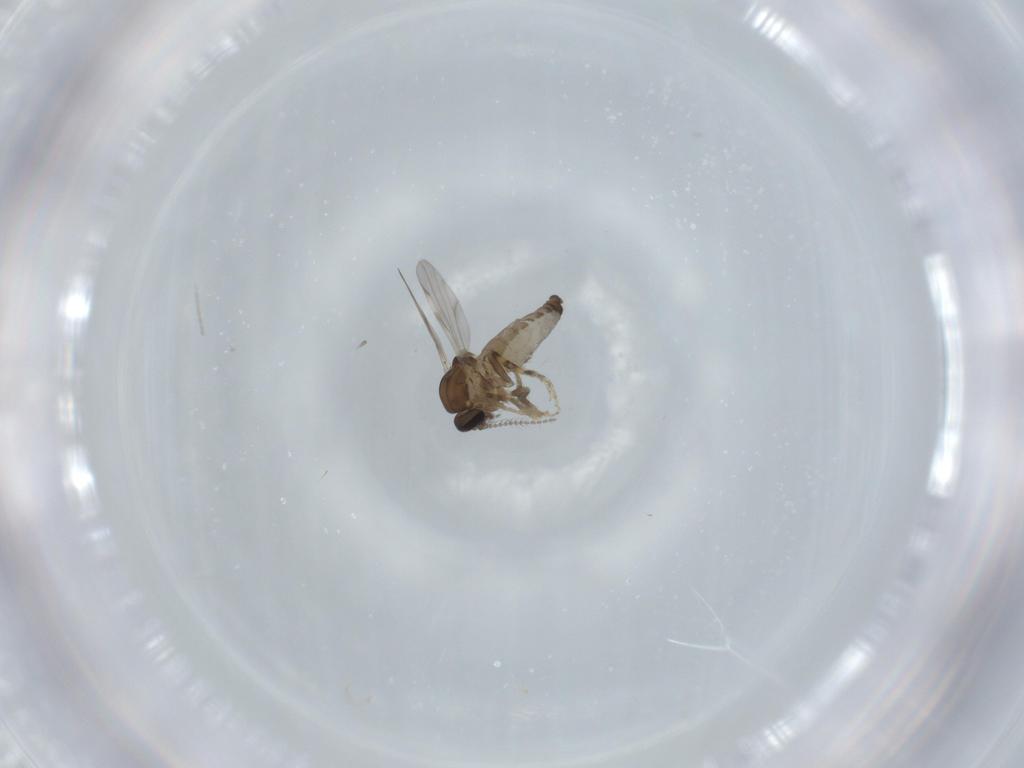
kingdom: Animalia
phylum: Arthropoda
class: Insecta
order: Diptera
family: Ceratopogonidae
